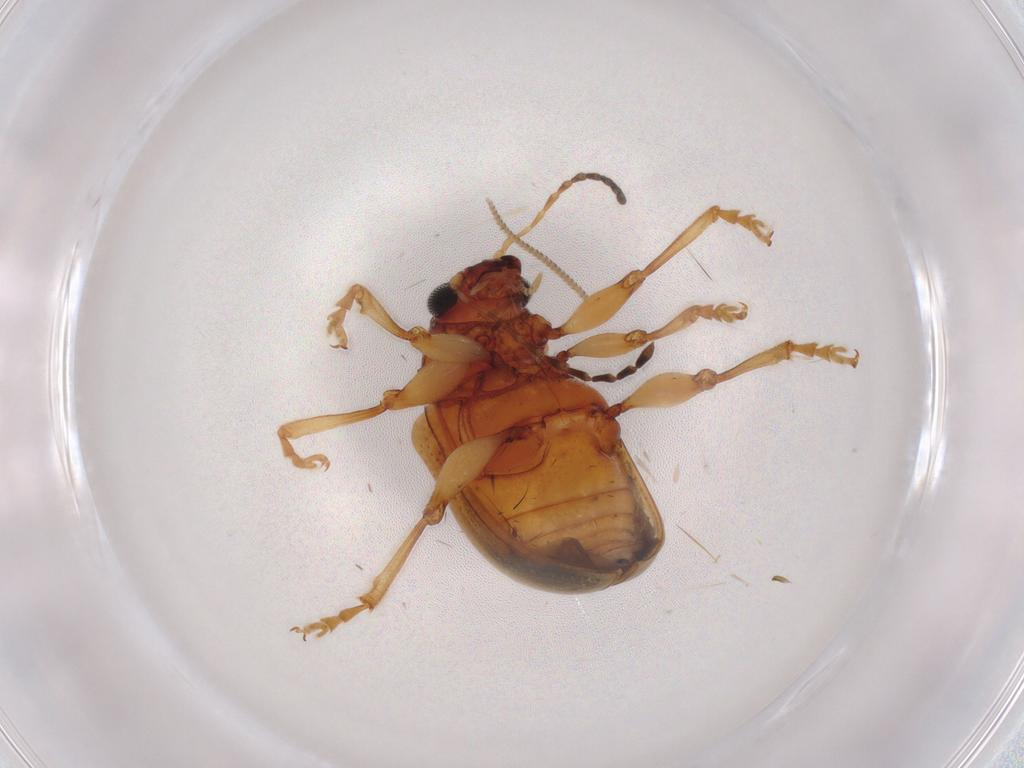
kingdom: Animalia
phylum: Arthropoda
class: Insecta
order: Coleoptera
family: Chrysomelidae
